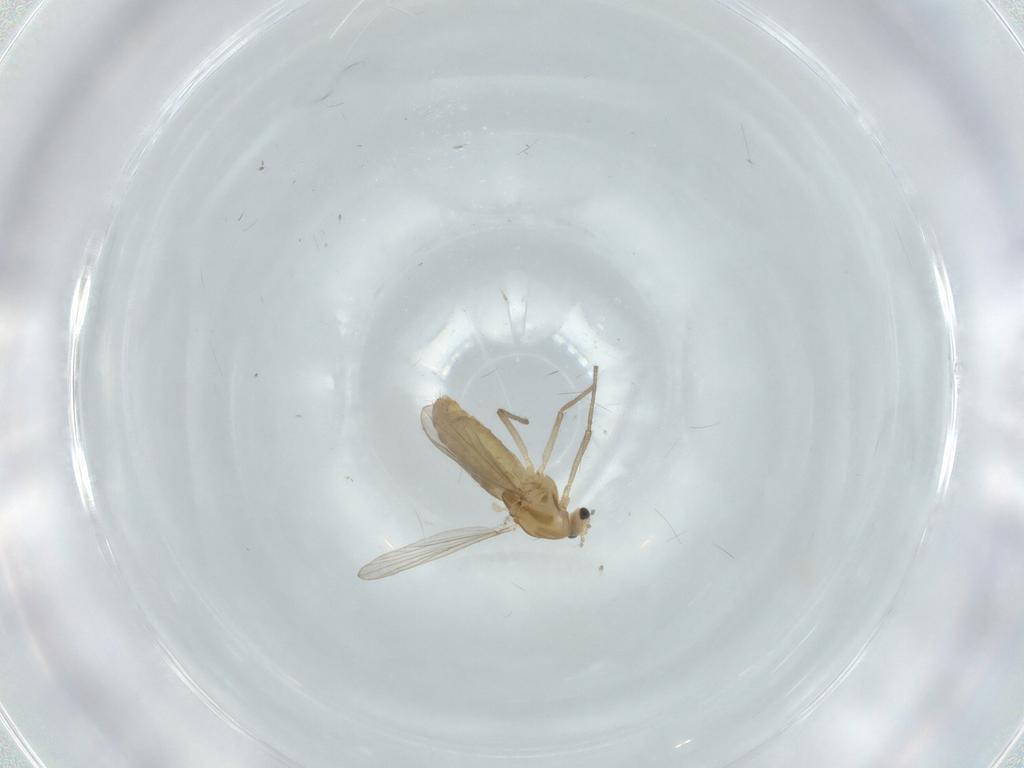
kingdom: Animalia
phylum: Arthropoda
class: Insecta
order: Diptera
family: Chironomidae
